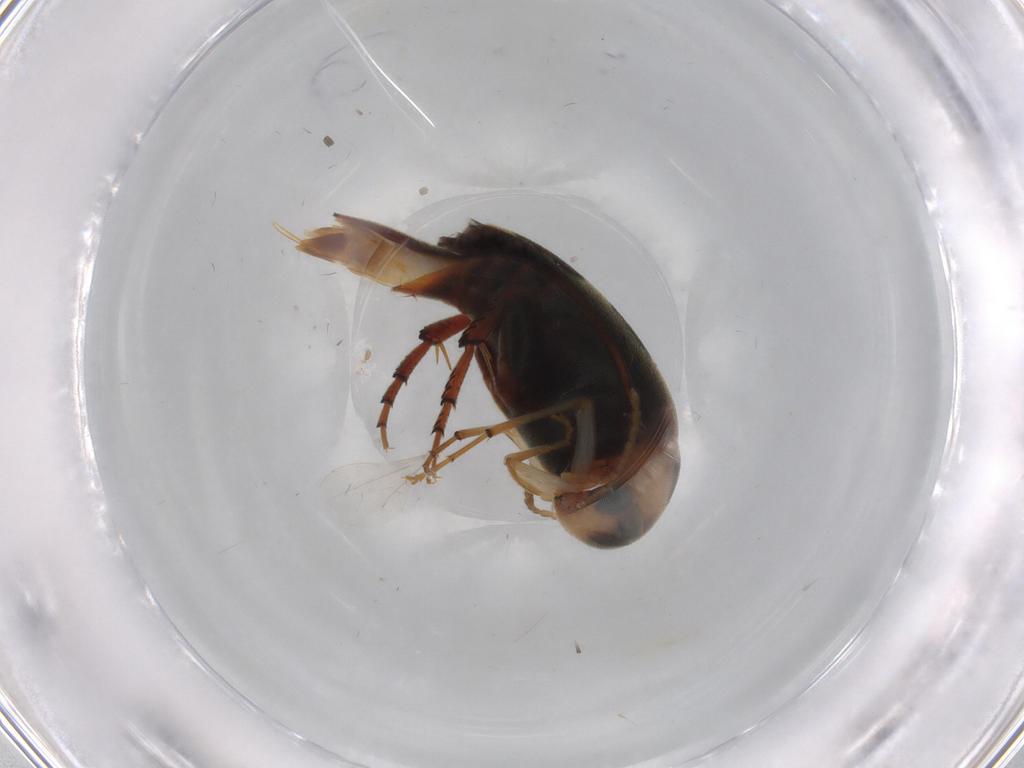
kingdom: Animalia
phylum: Arthropoda
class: Insecta
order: Coleoptera
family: Mordellidae
